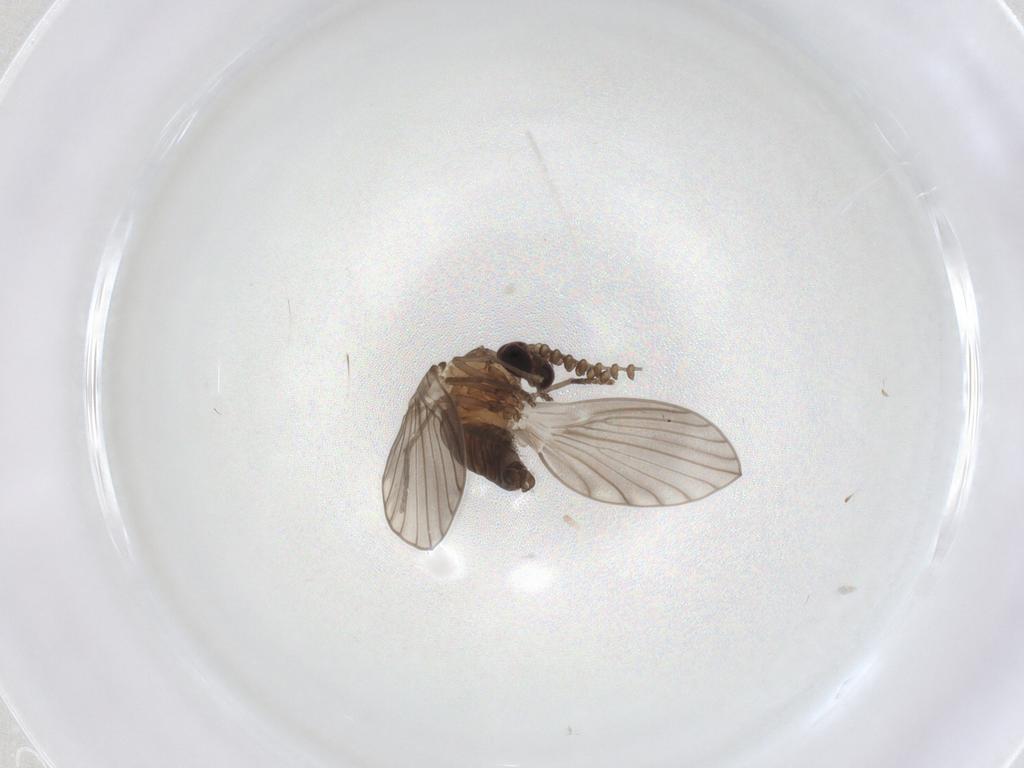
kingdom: Animalia
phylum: Arthropoda
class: Insecta
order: Diptera
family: Psychodidae
